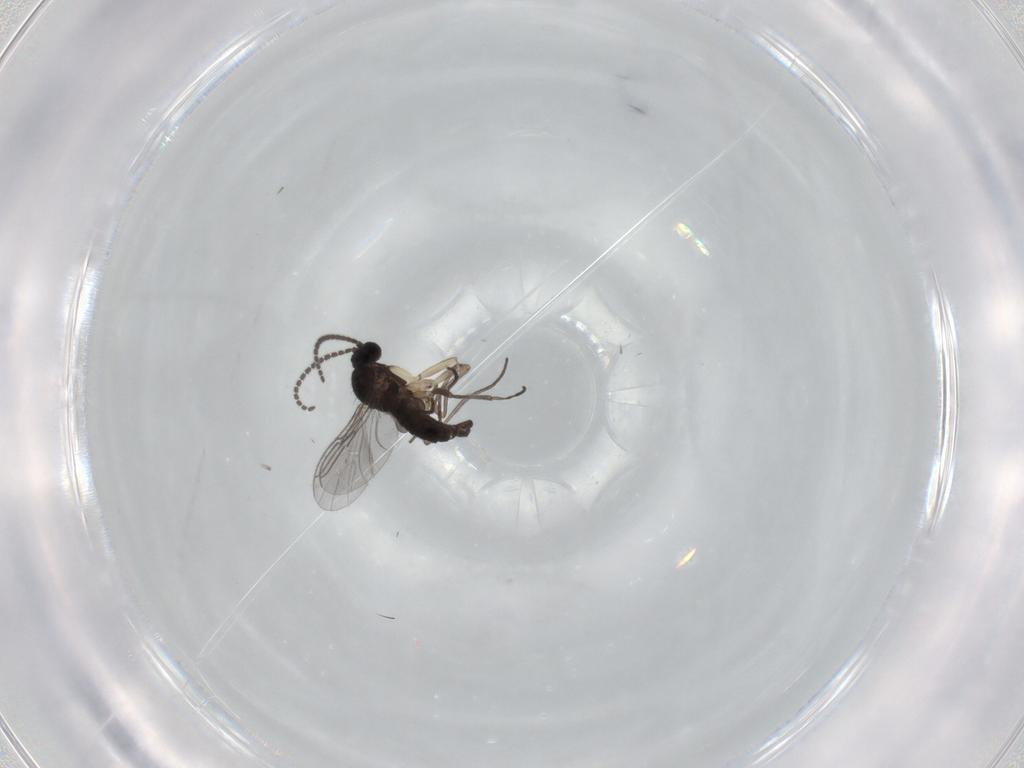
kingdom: Animalia
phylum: Arthropoda
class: Insecta
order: Diptera
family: Sciaridae
